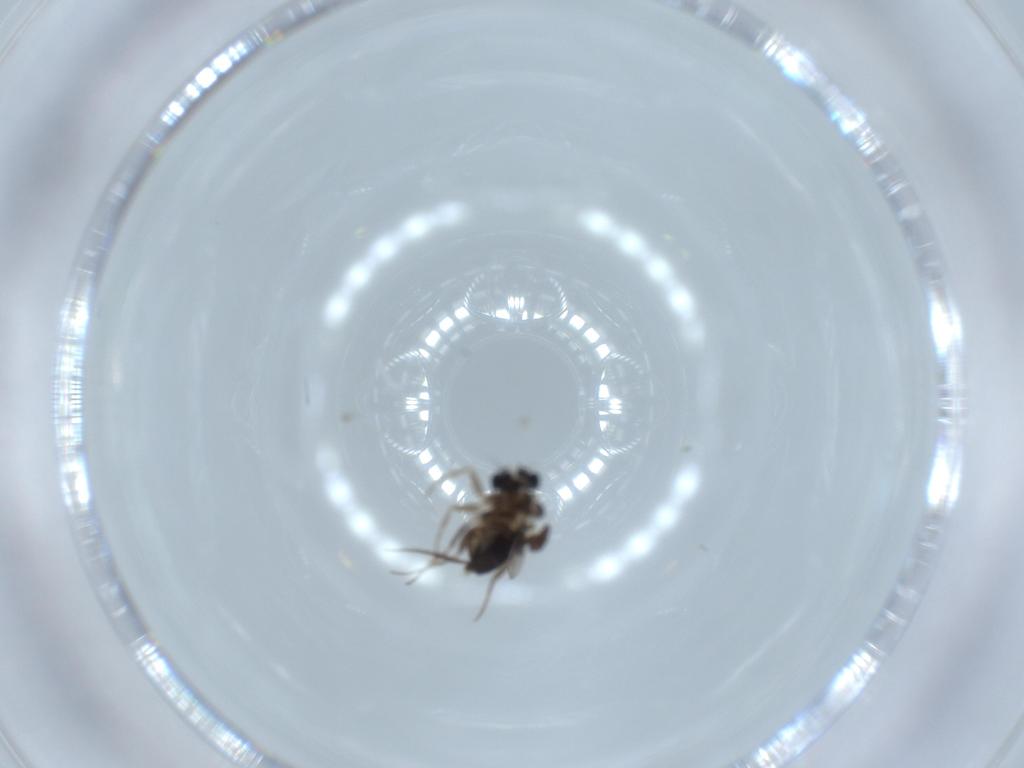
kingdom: Animalia
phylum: Arthropoda
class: Insecta
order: Diptera
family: Phoridae
